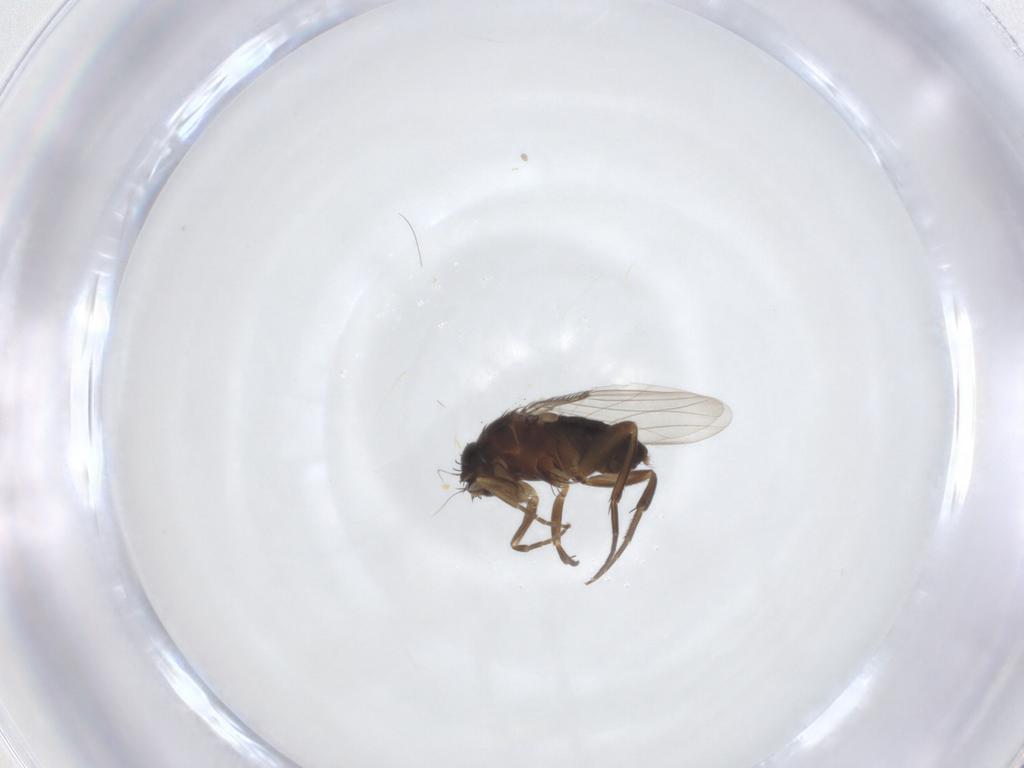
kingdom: Animalia
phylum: Arthropoda
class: Insecta
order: Diptera
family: Phoridae
